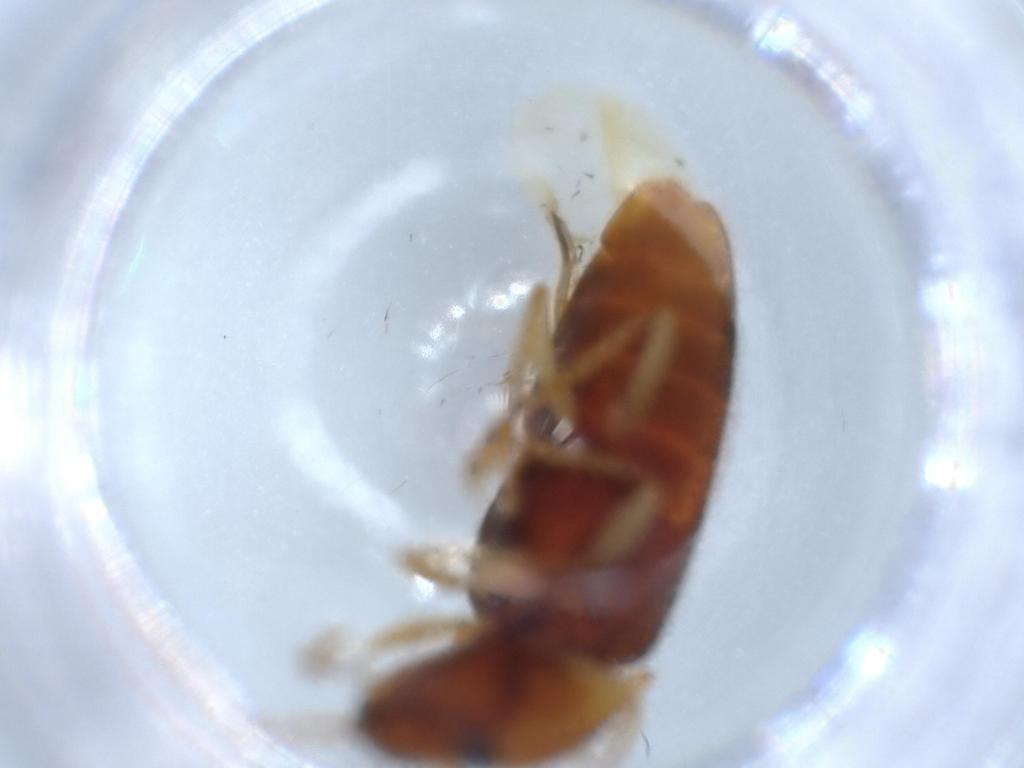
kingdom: Animalia
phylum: Arthropoda
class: Insecta
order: Coleoptera
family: Elateridae
